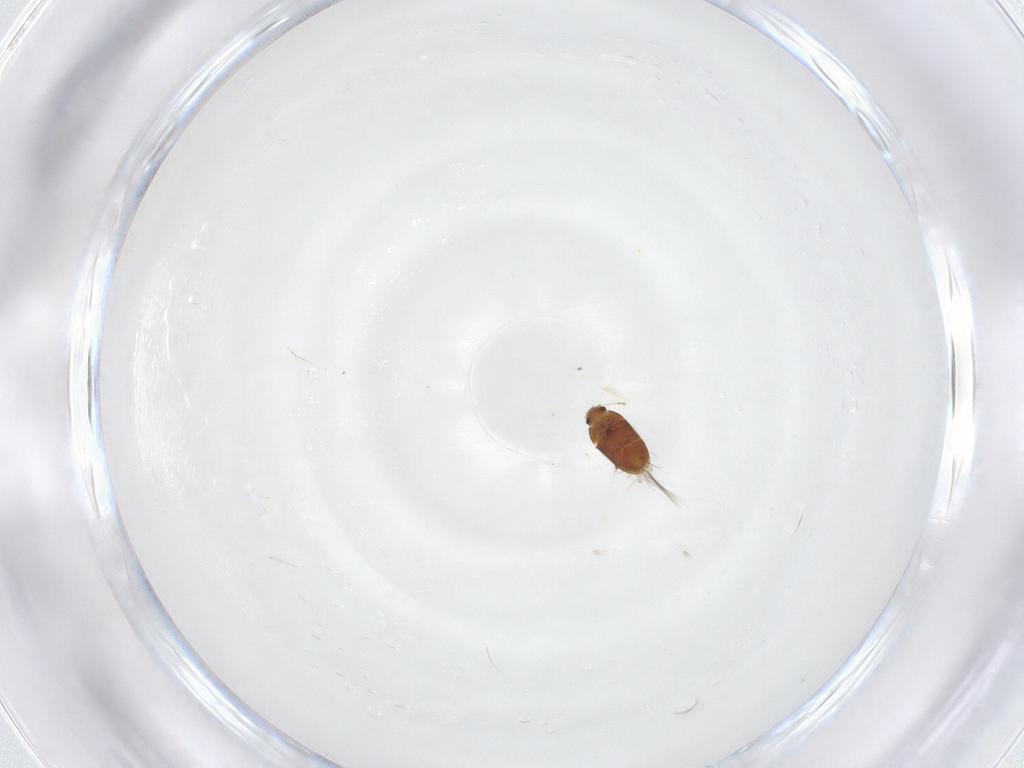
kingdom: Animalia
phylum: Arthropoda
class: Insecta
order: Coleoptera
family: Ptiliidae
